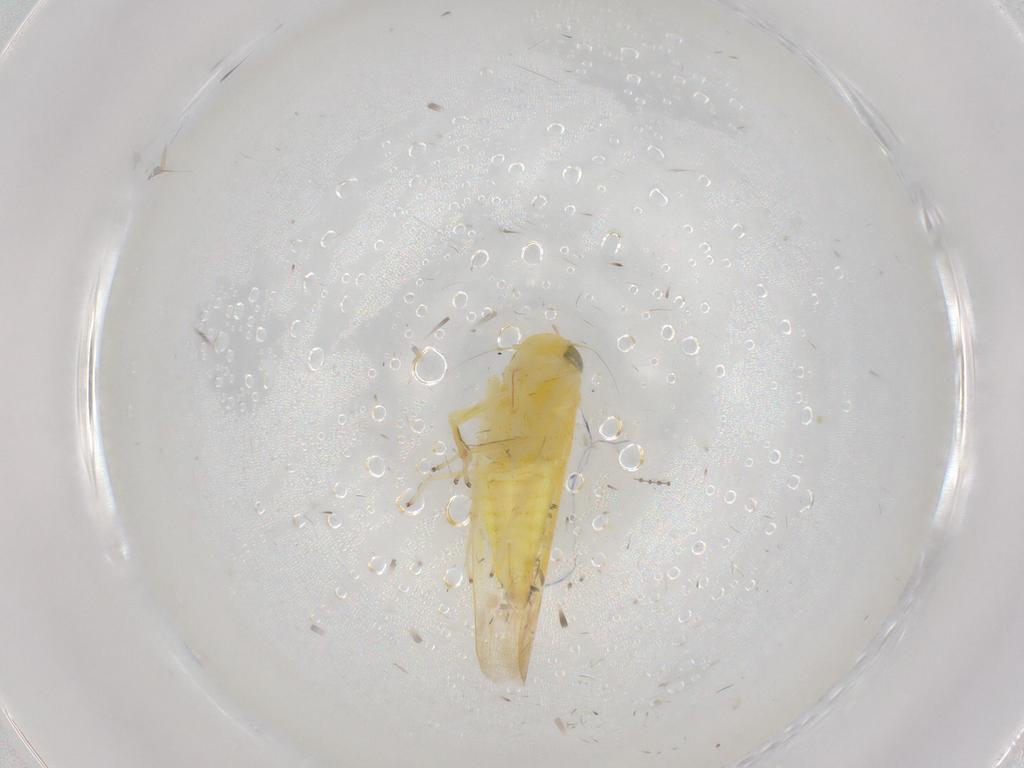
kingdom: Animalia
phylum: Arthropoda
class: Insecta
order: Hemiptera
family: Cicadellidae
